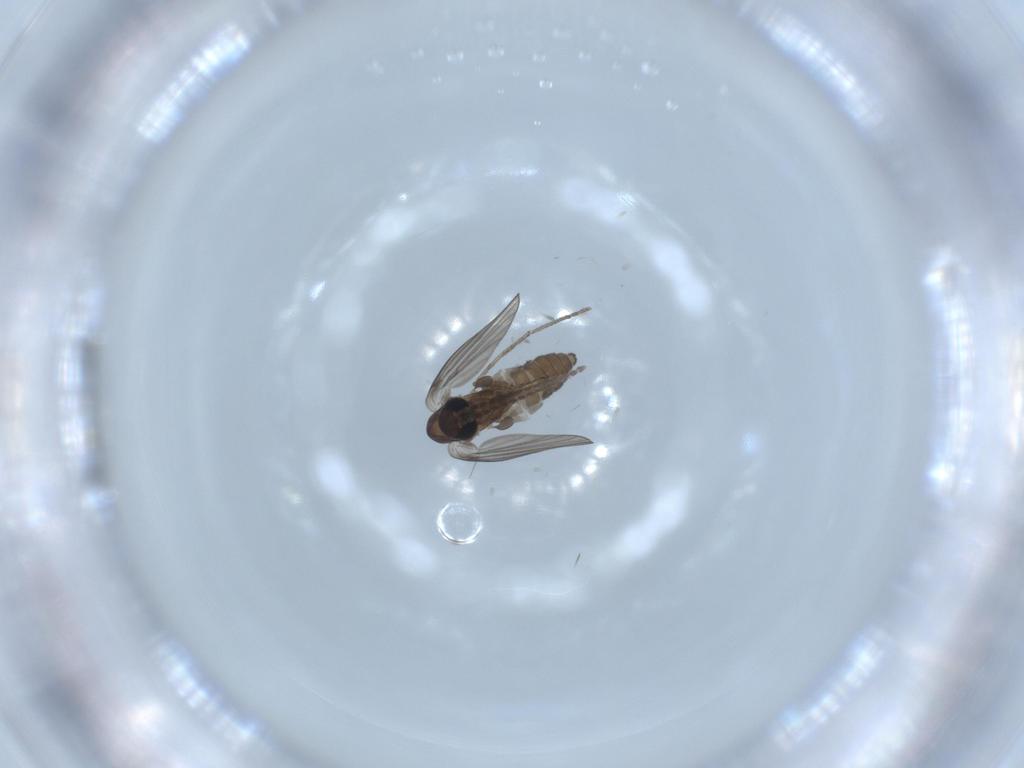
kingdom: Animalia
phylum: Arthropoda
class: Insecta
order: Diptera
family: Psychodidae
